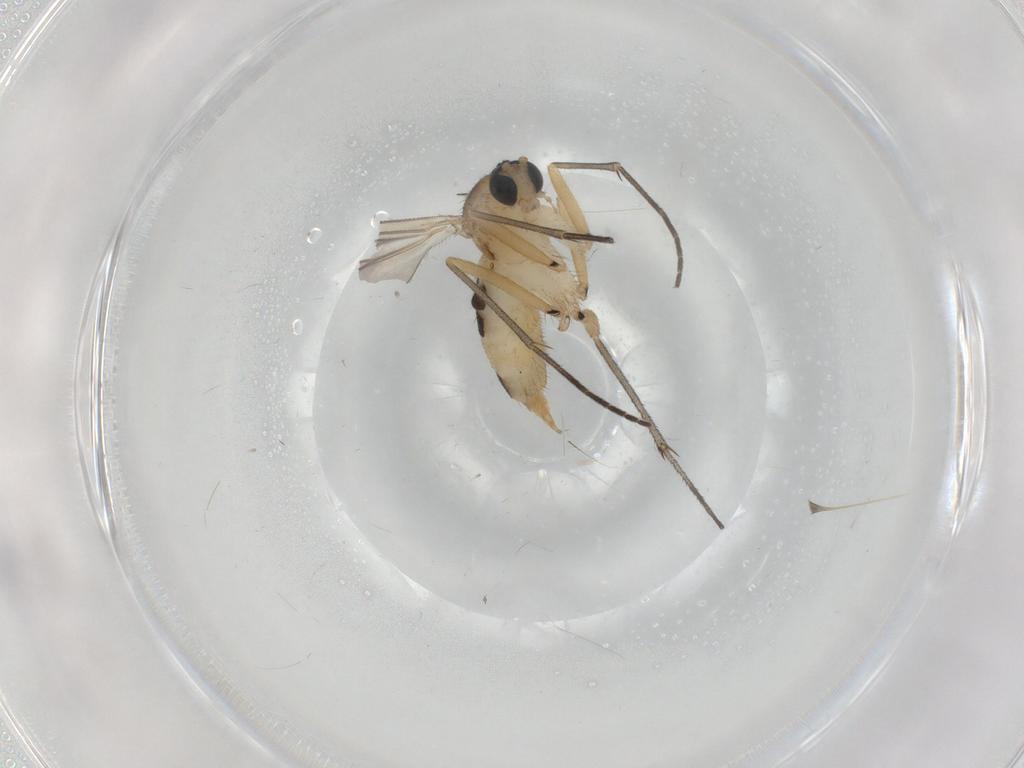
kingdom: Animalia
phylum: Arthropoda
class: Insecta
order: Diptera
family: Sciaridae
